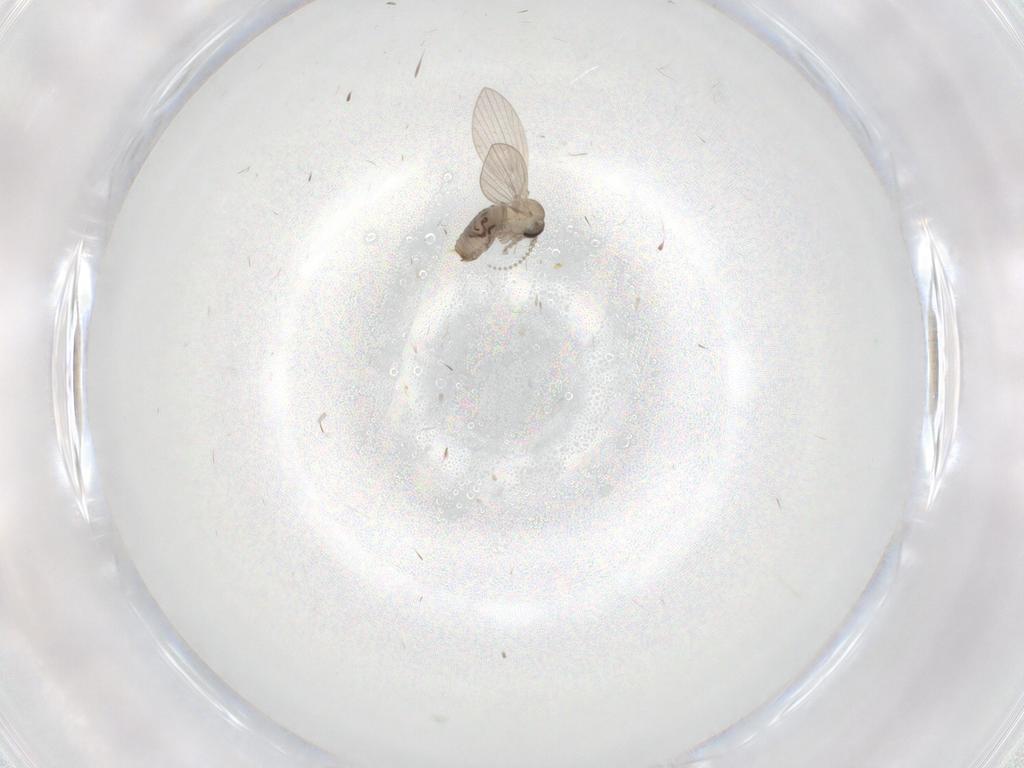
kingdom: Animalia
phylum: Arthropoda
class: Insecta
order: Diptera
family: Psychodidae
